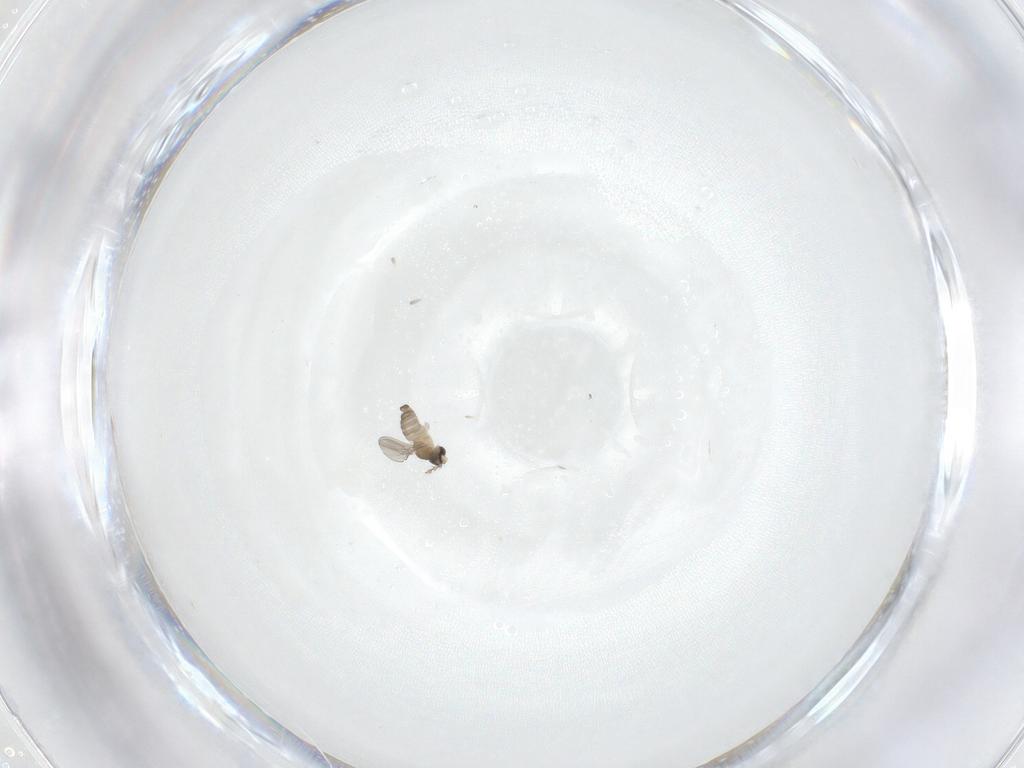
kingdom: Animalia
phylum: Arthropoda
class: Insecta
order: Diptera
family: Cecidomyiidae
